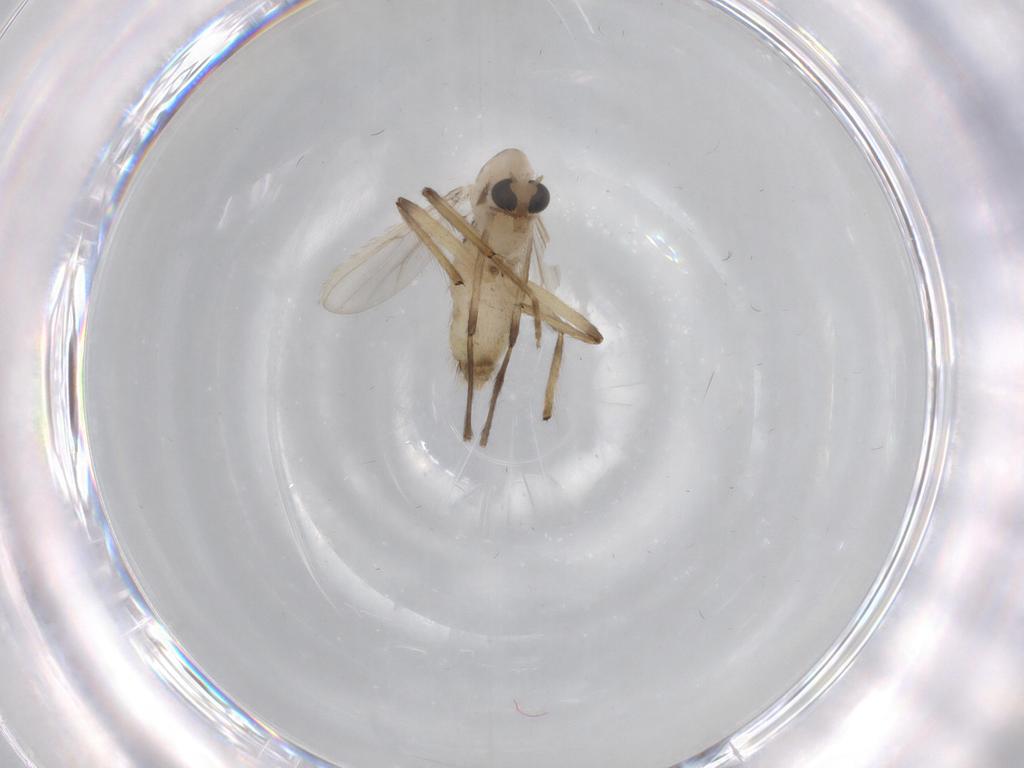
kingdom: Animalia
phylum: Arthropoda
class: Insecta
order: Diptera
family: Chironomidae
